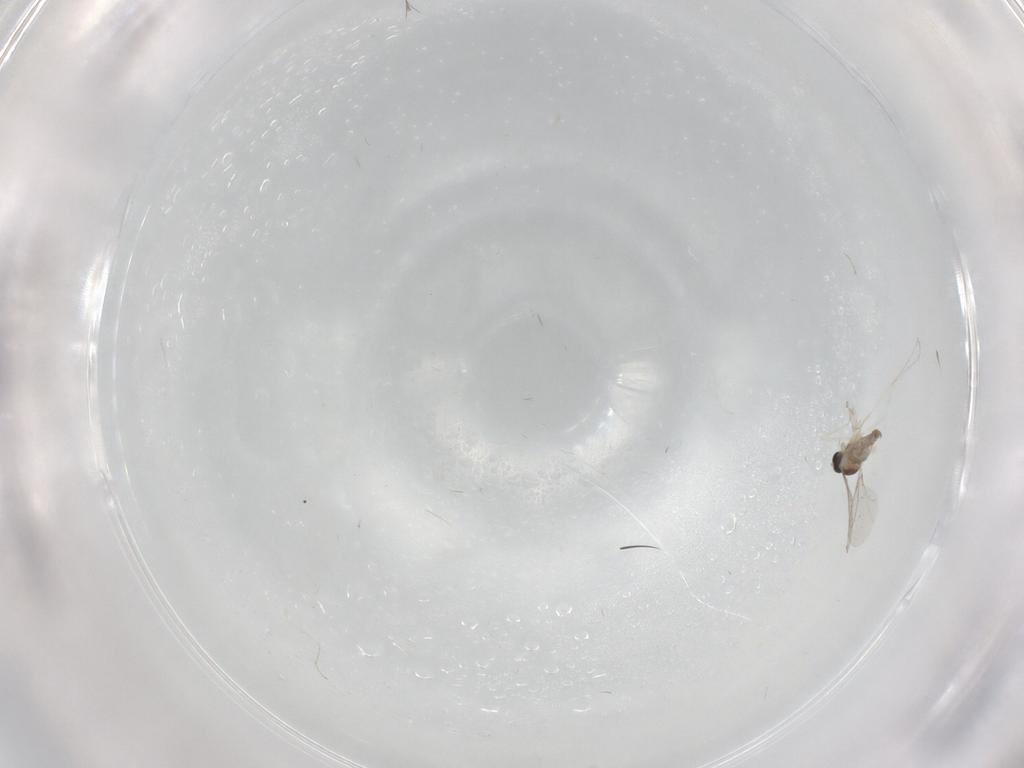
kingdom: Animalia
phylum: Arthropoda
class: Insecta
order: Diptera
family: Cecidomyiidae
